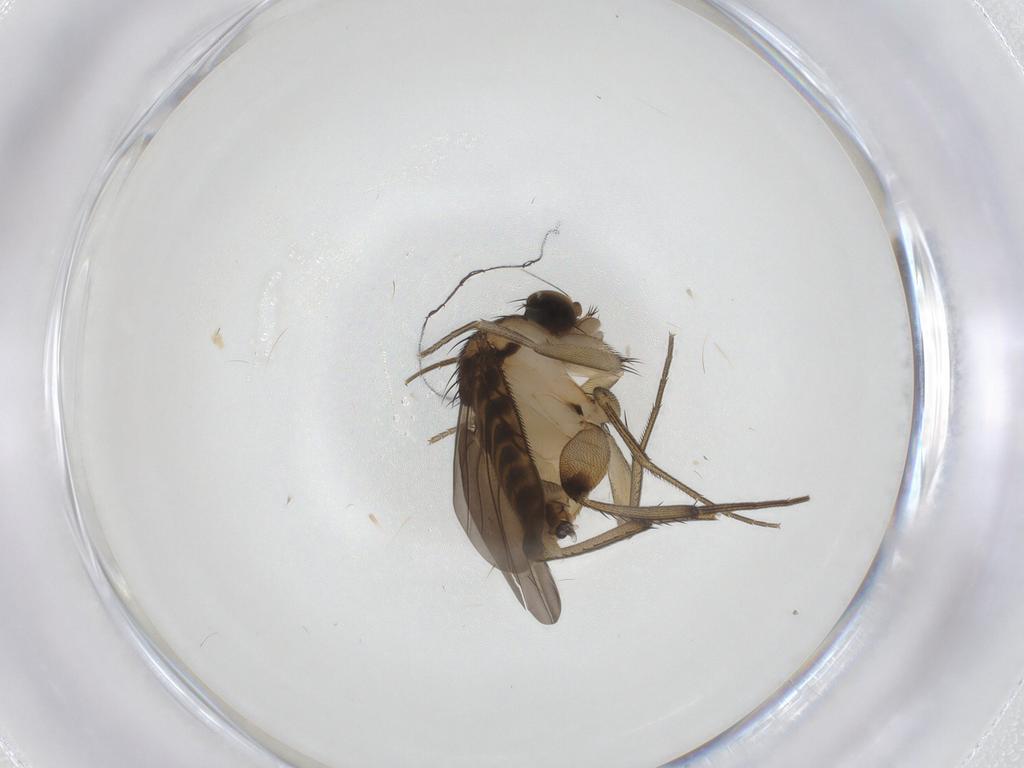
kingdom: Animalia
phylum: Arthropoda
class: Insecta
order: Diptera
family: Phoridae
